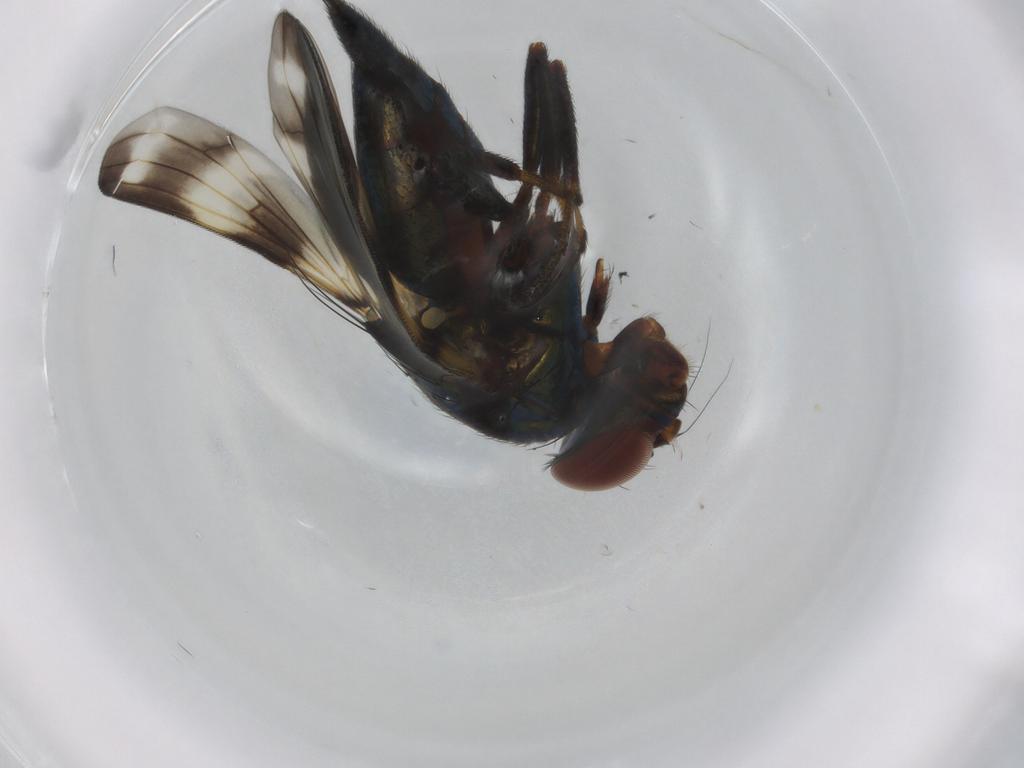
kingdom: Animalia
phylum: Arthropoda
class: Insecta
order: Diptera
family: Ulidiidae
